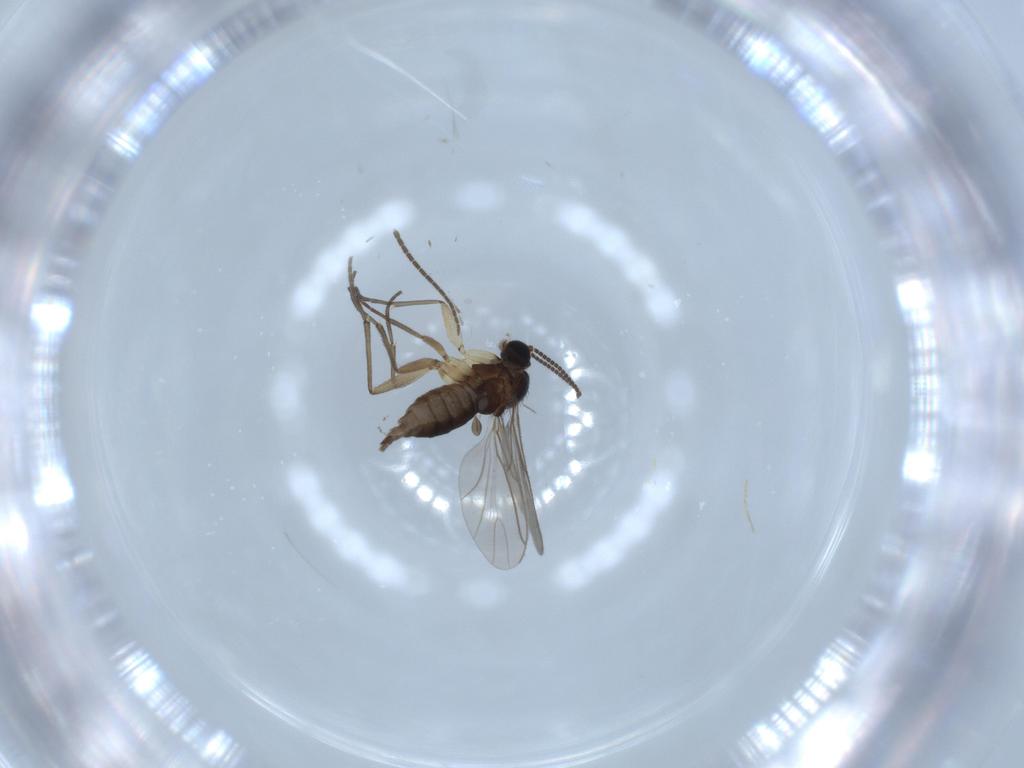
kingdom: Animalia
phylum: Arthropoda
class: Insecta
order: Diptera
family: Sciaridae
